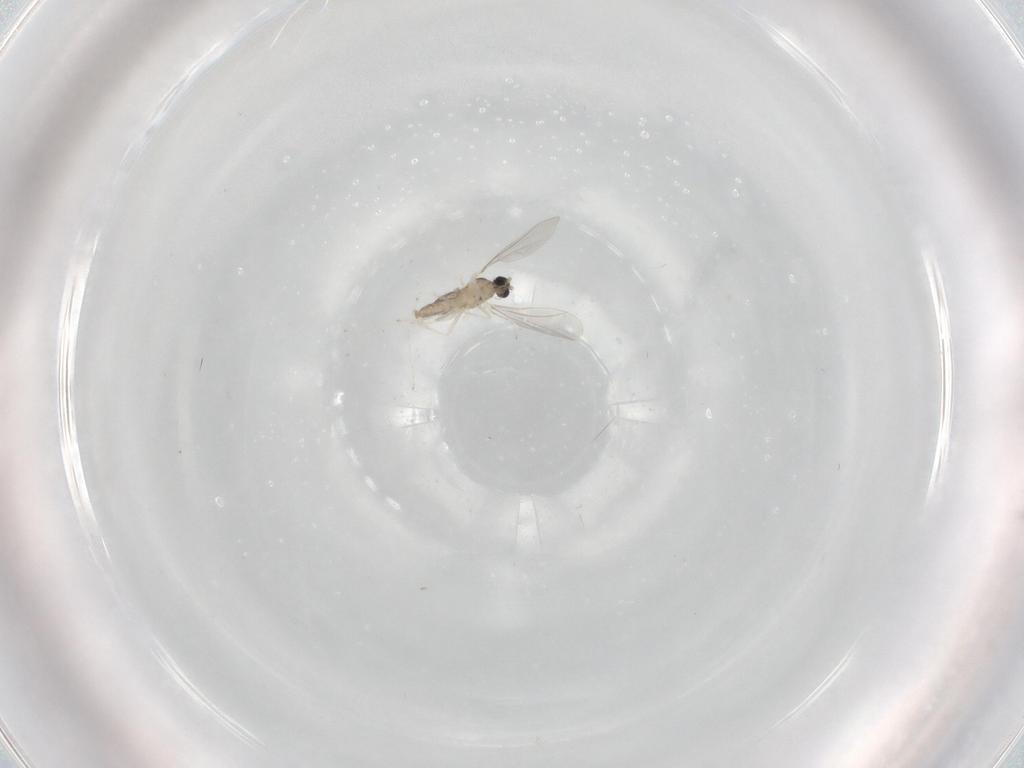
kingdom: Animalia
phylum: Arthropoda
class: Insecta
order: Diptera
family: Cecidomyiidae
